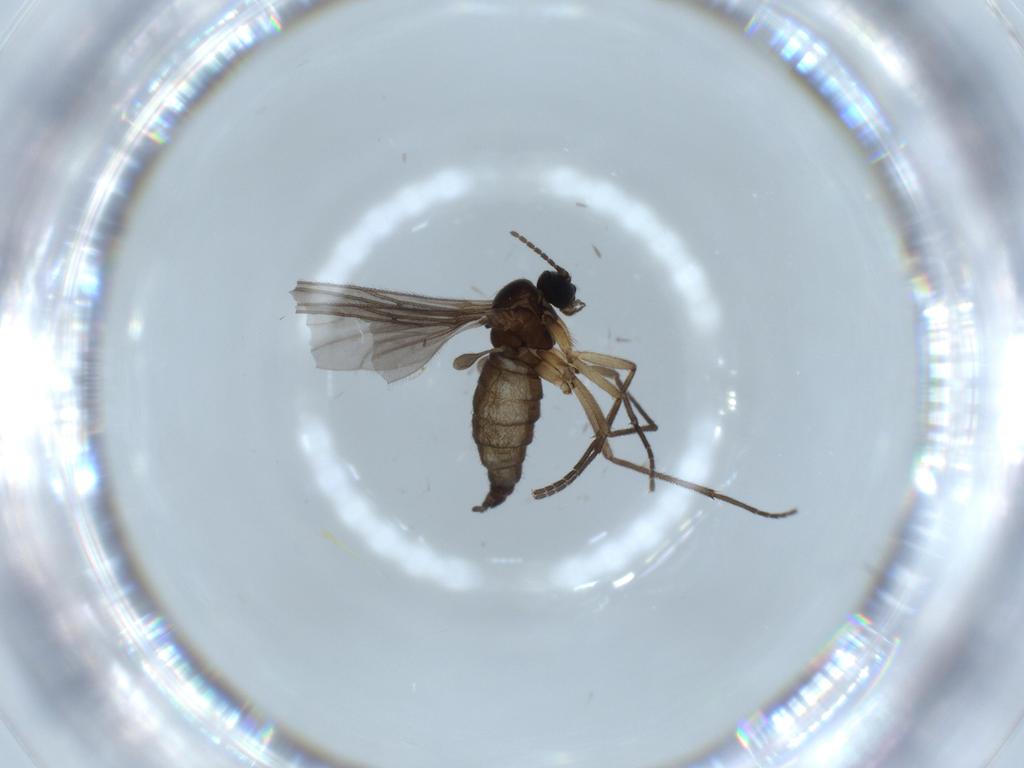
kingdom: Animalia
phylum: Arthropoda
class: Insecta
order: Diptera
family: Sciaridae
